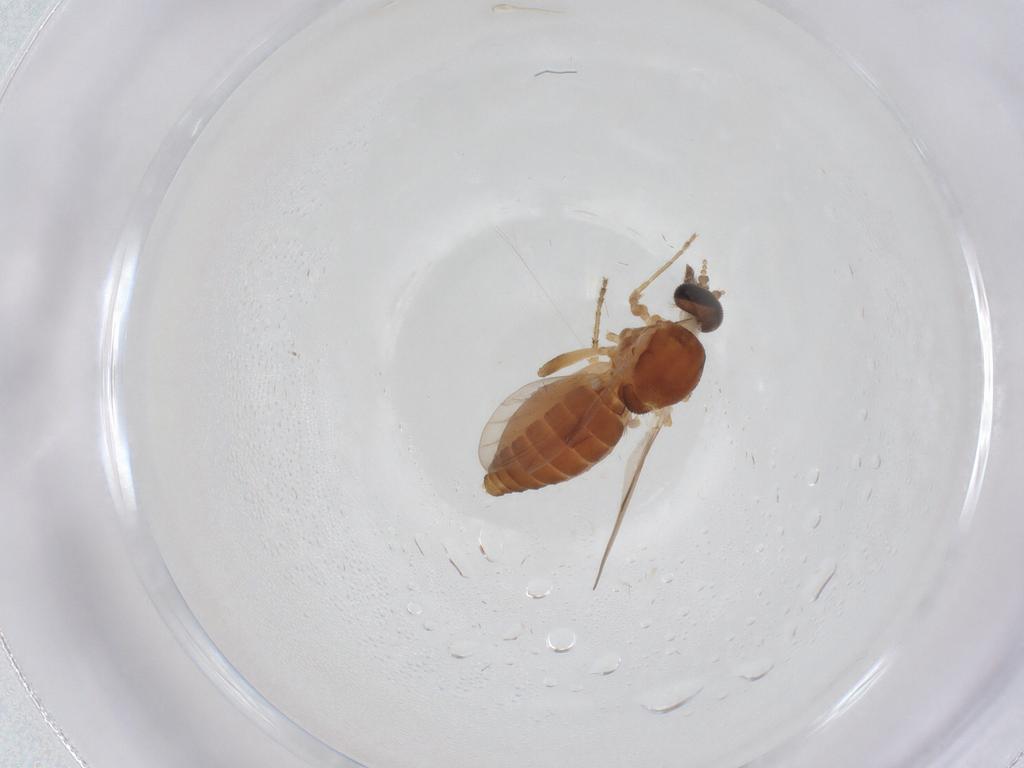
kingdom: Animalia
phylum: Arthropoda
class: Insecta
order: Diptera
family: Ceratopogonidae
